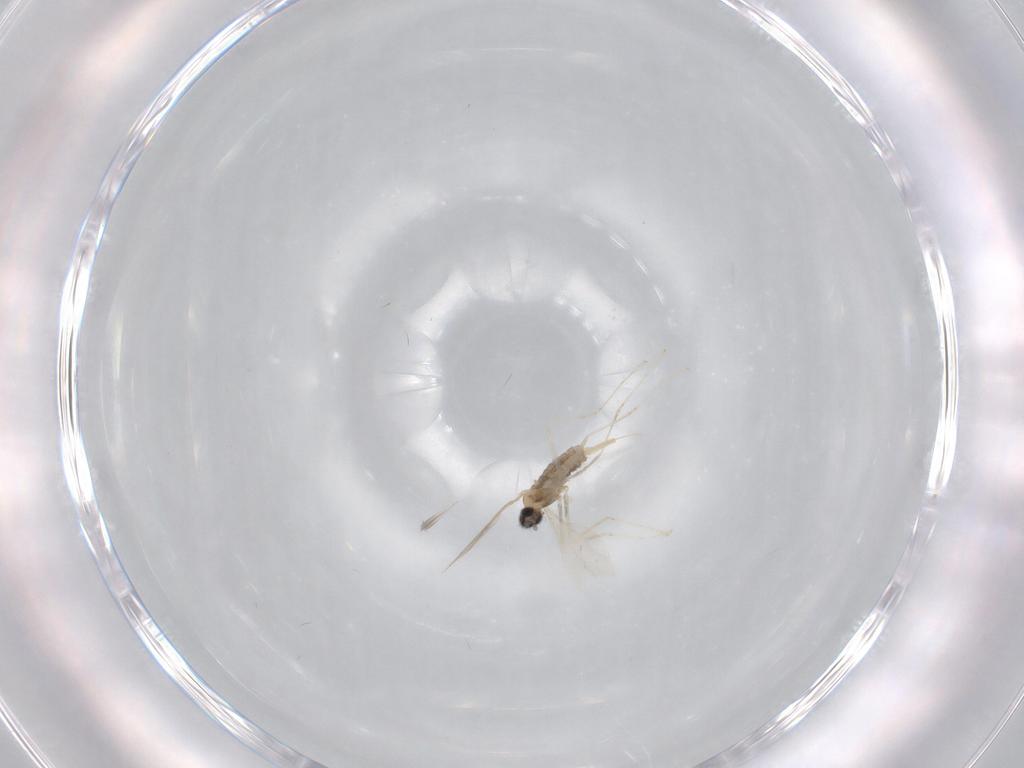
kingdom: Animalia
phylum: Arthropoda
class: Insecta
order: Diptera
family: Cecidomyiidae
